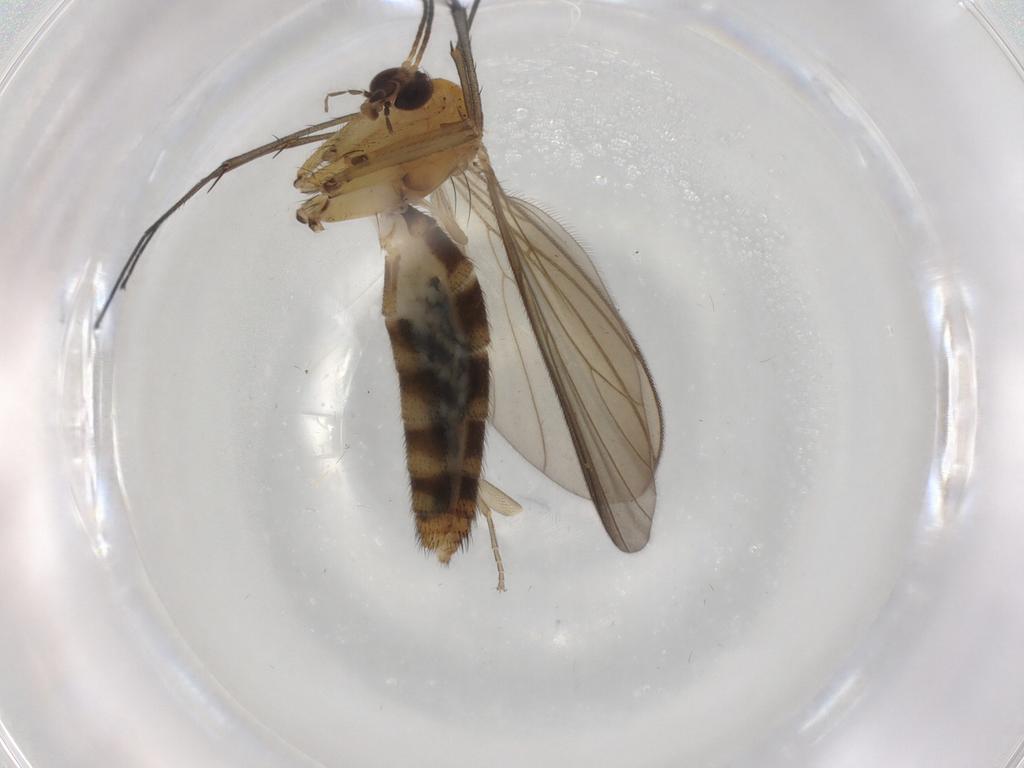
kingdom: Animalia
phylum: Arthropoda
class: Insecta
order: Diptera
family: Phoridae
